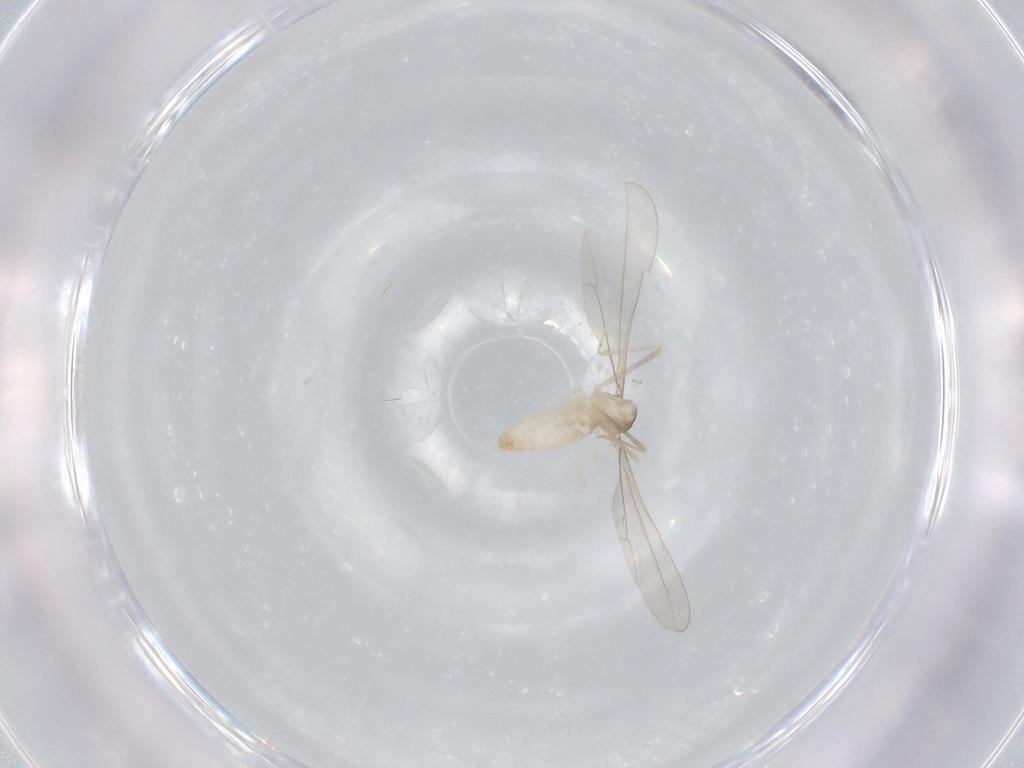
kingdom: Animalia
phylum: Arthropoda
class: Insecta
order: Diptera
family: Cecidomyiidae
